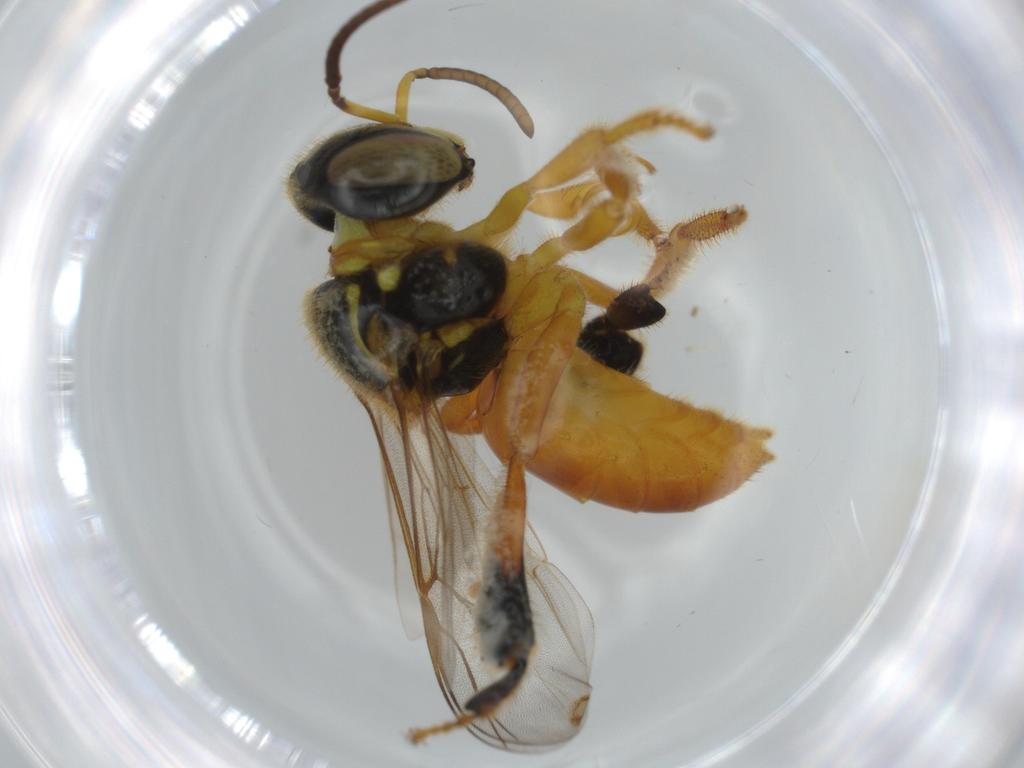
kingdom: Animalia
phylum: Arthropoda
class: Insecta
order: Hymenoptera
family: Apidae
